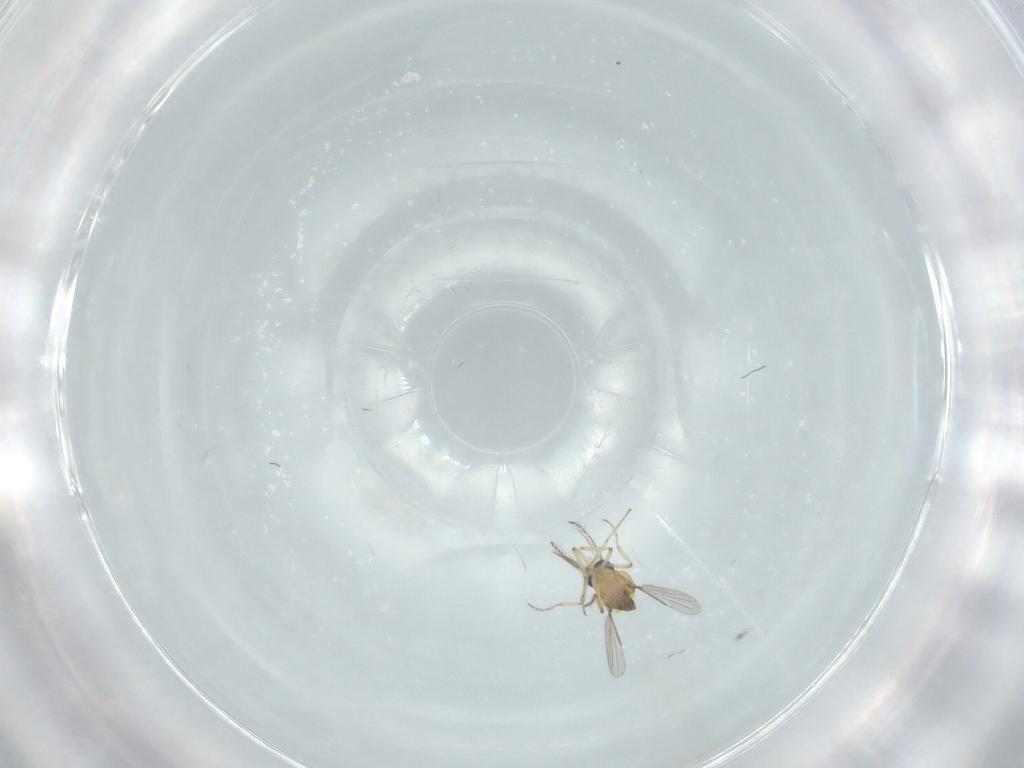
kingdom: Animalia
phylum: Arthropoda
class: Insecta
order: Diptera
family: Ceratopogonidae
